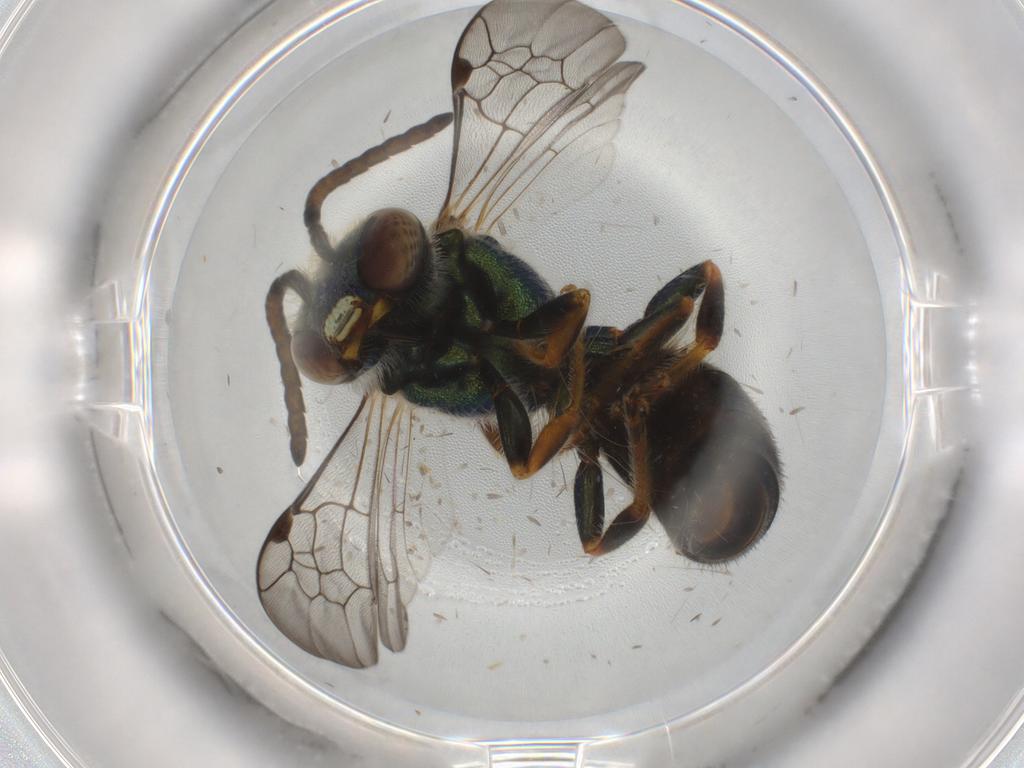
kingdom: Animalia
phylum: Arthropoda
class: Insecta
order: Hymenoptera
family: Halictidae
